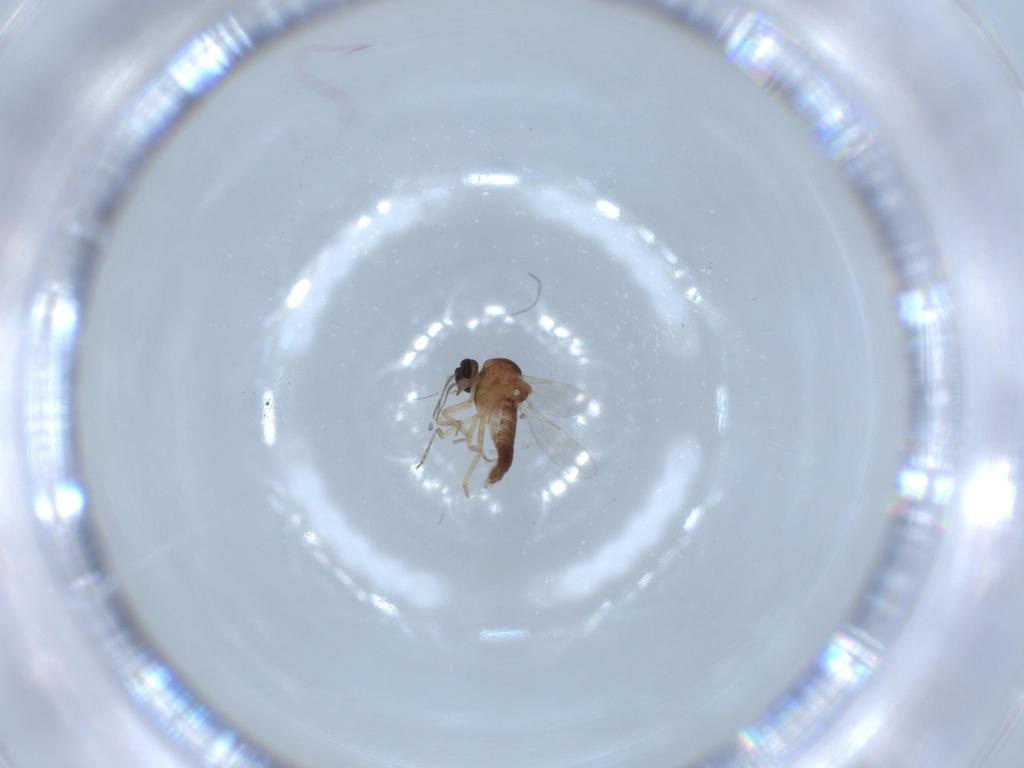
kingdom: Animalia
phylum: Arthropoda
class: Insecta
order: Diptera
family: Ceratopogonidae
